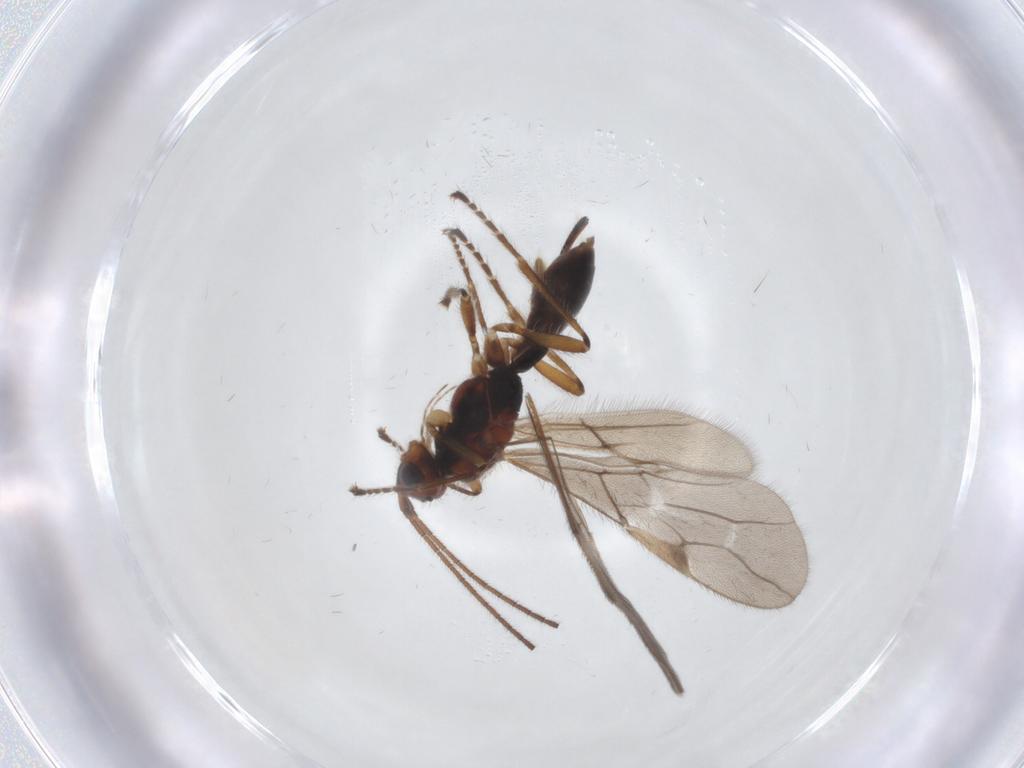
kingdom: Animalia
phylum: Arthropoda
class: Insecta
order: Hymenoptera
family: Braconidae
